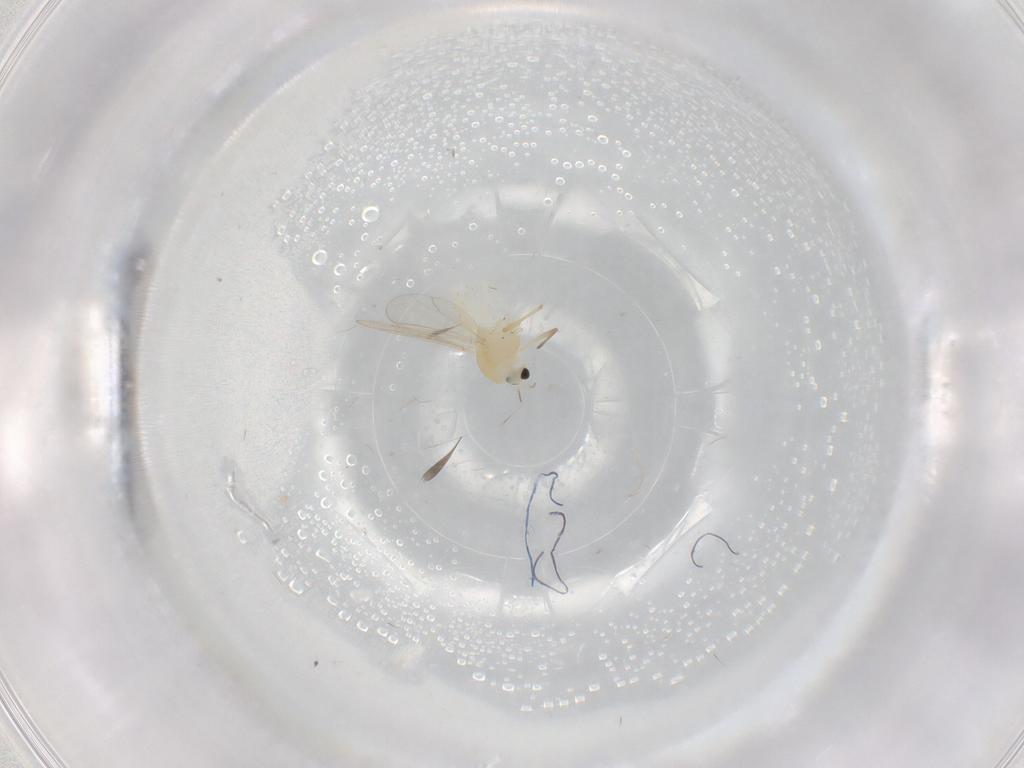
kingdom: Animalia
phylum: Arthropoda
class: Insecta
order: Diptera
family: Chironomidae
